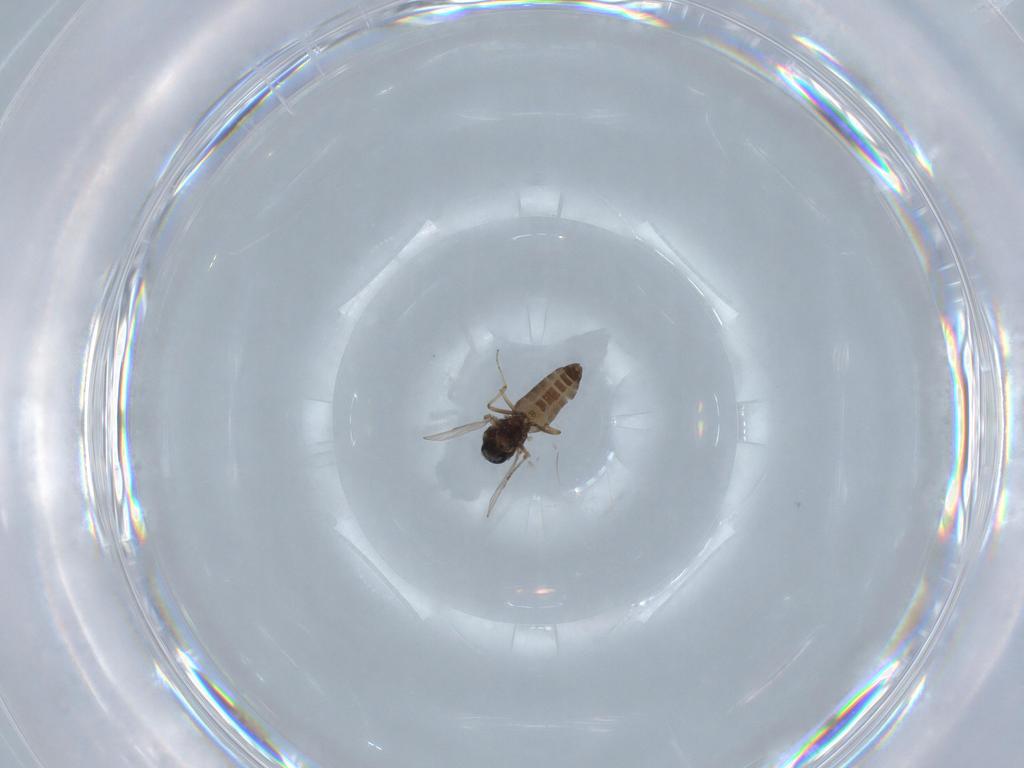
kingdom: Animalia
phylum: Arthropoda
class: Insecta
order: Diptera
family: Ceratopogonidae
